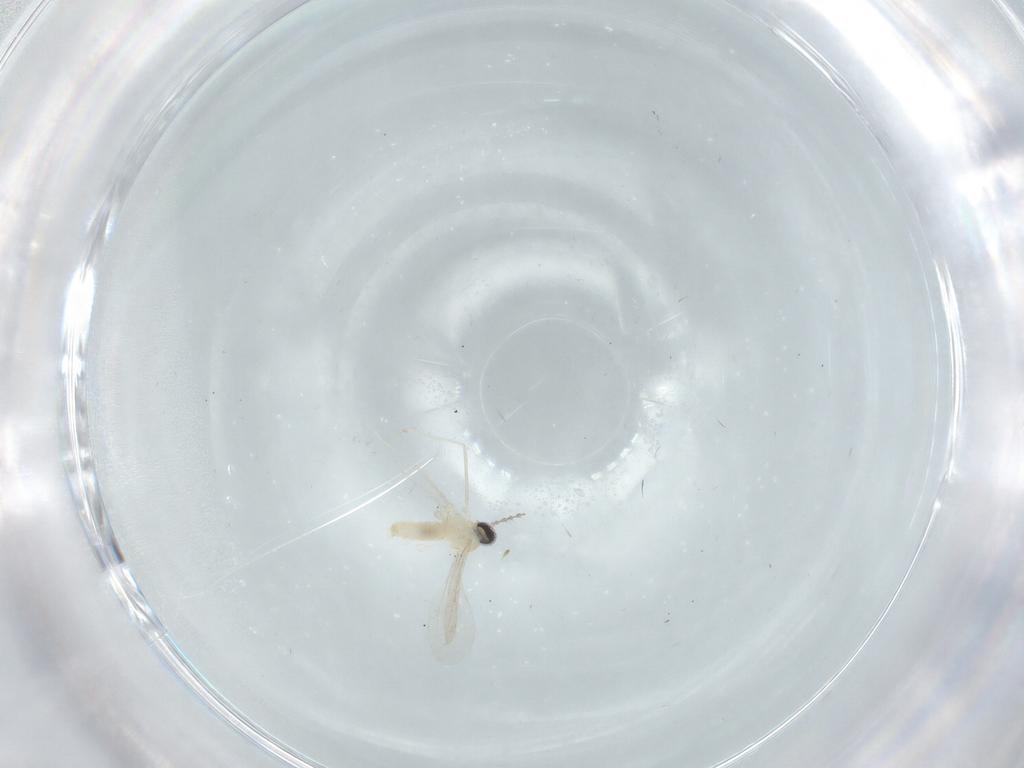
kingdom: Animalia
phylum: Arthropoda
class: Insecta
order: Diptera
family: Cecidomyiidae
